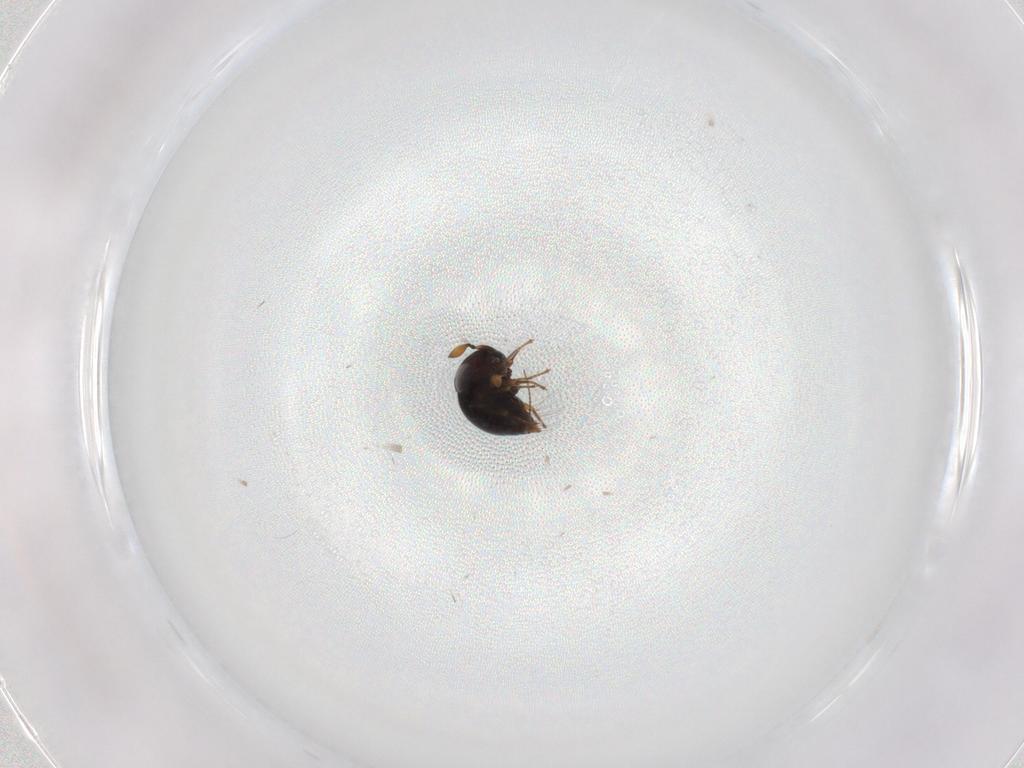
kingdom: Animalia
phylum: Arthropoda
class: Insecta
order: Hymenoptera
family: Scelionidae
